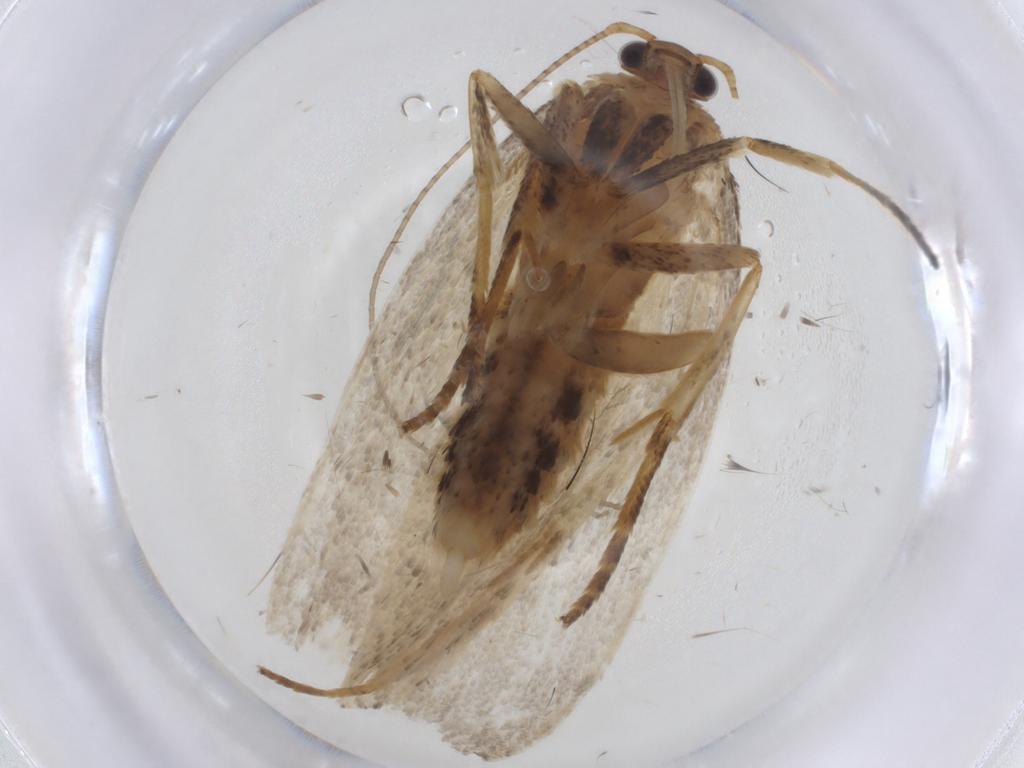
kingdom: Animalia
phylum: Arthropoda
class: Insecta
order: Lepidoptera
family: Depressariidae
